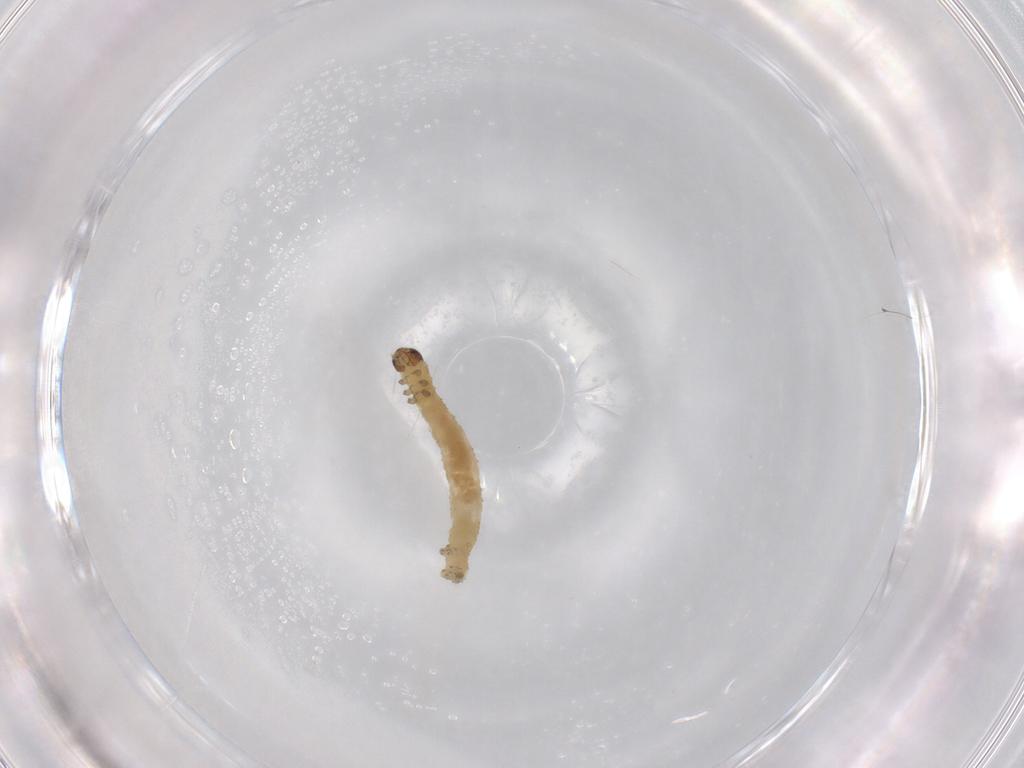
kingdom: Animalia
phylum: Arthropoda
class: Insecta
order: Lepidoptera
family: Geometridae
